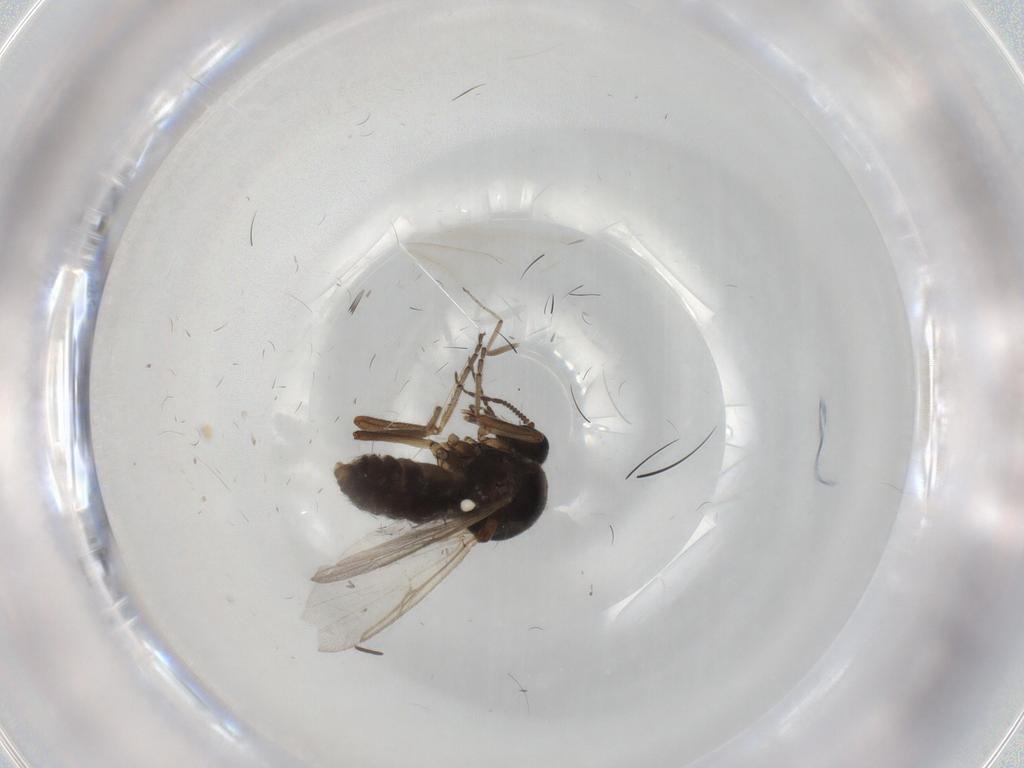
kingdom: Animalia
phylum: Arthropoda
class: Insecta
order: Diptera
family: Ceratopogonidae
